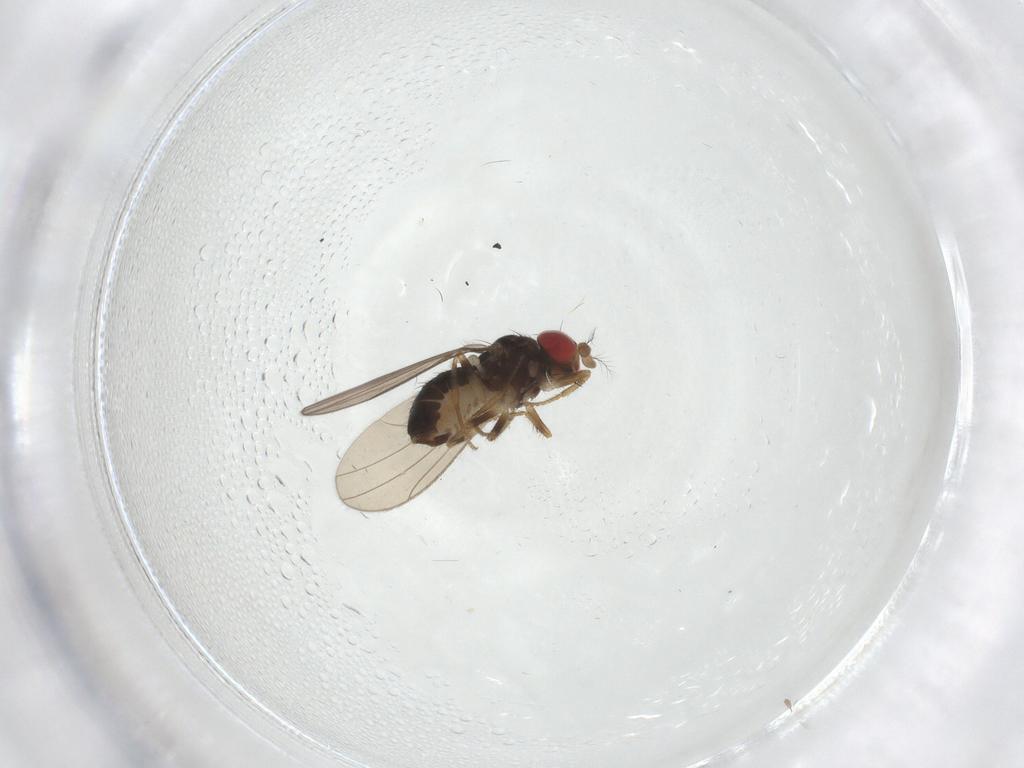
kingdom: Animalia
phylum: Arthropoda
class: Insecta
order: Diptera
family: Drosophilidae
